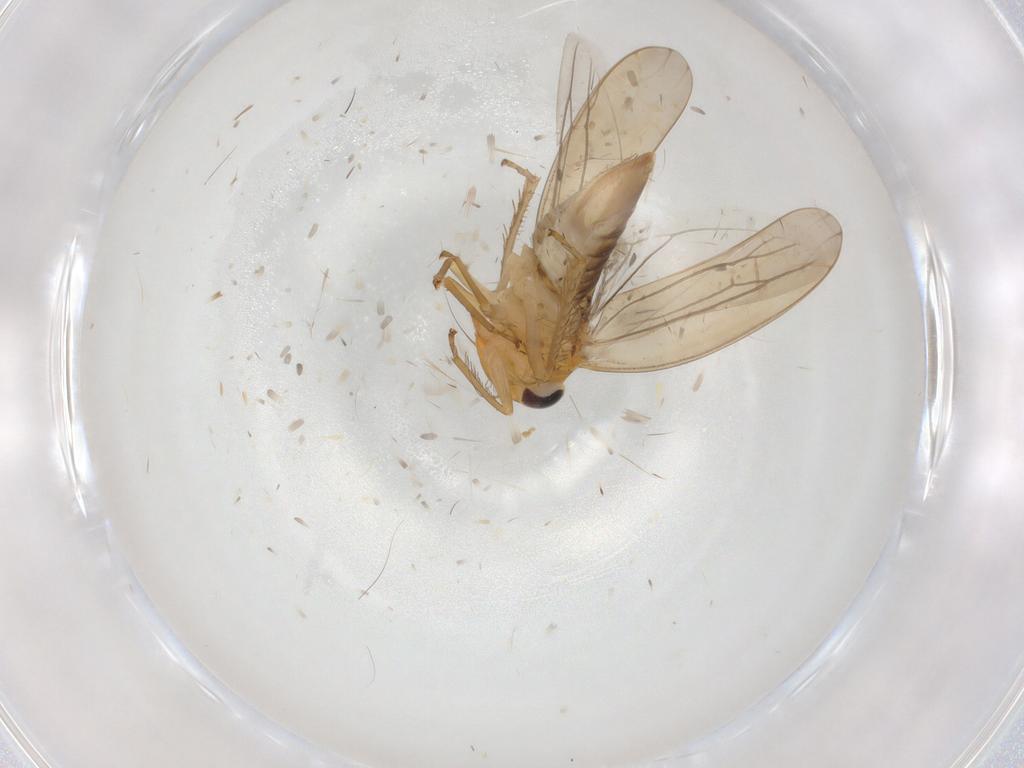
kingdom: Animalia
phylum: Arthropoda
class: Insecta
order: Hemiptera
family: Cicadellidae
